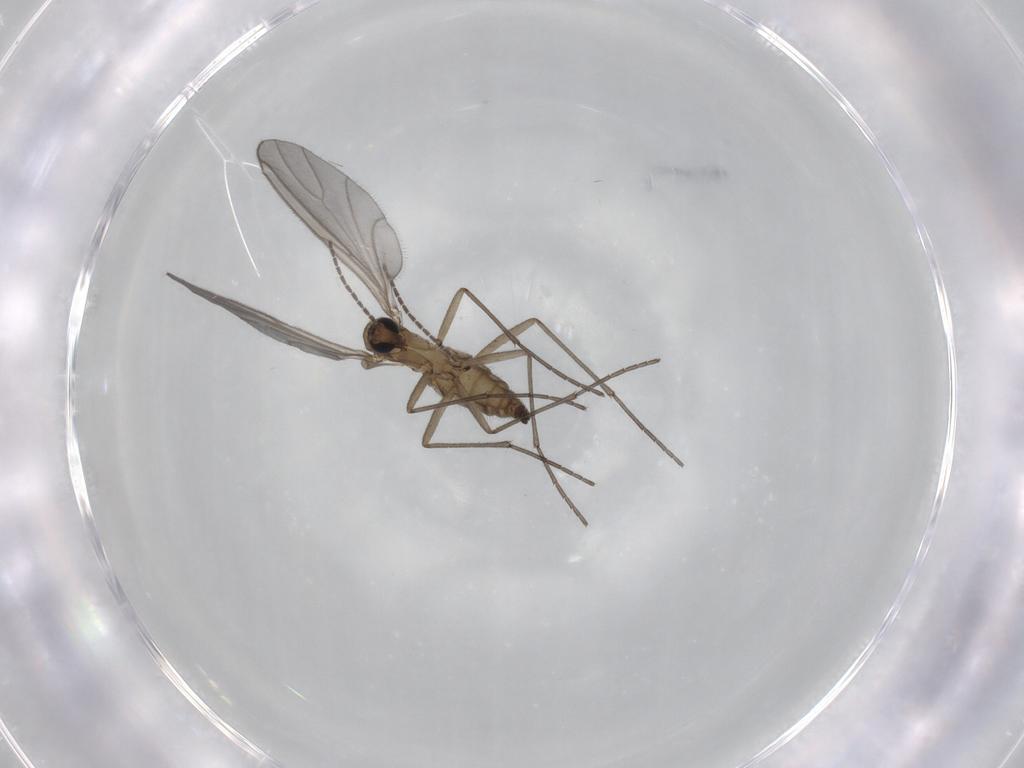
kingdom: Animalia
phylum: Arthropoda
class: Insecta
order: Diptera
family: Sciaridae
